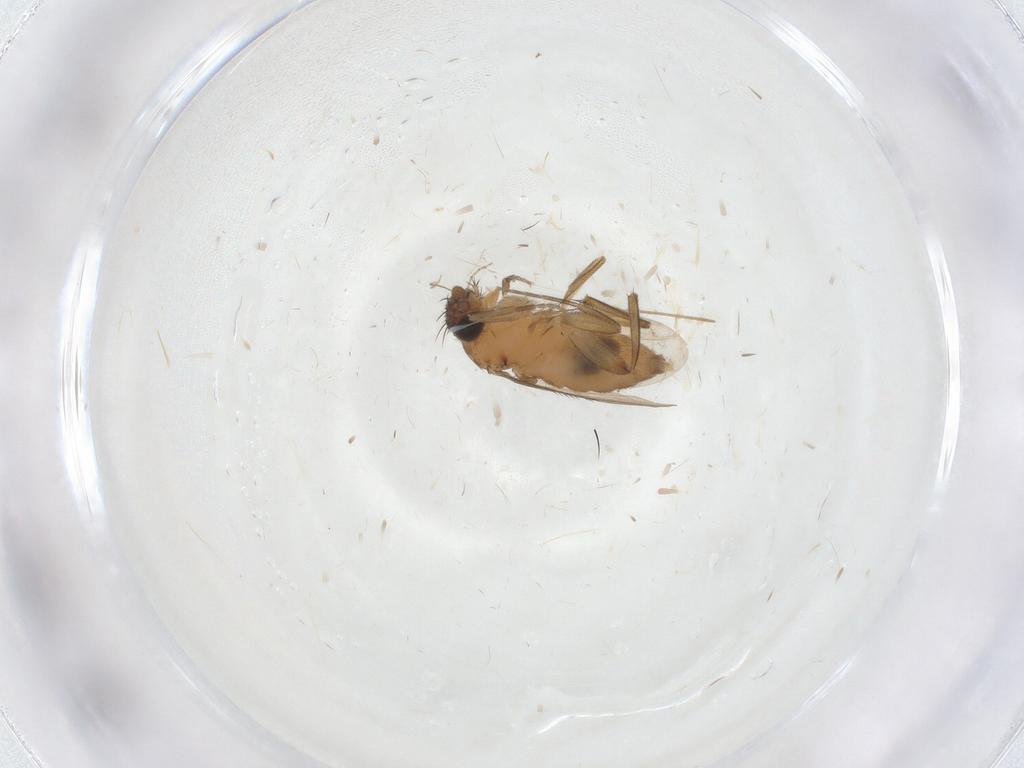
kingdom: Animalia
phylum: Arthropoda
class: Insecta
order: Diptera
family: Phoridae
